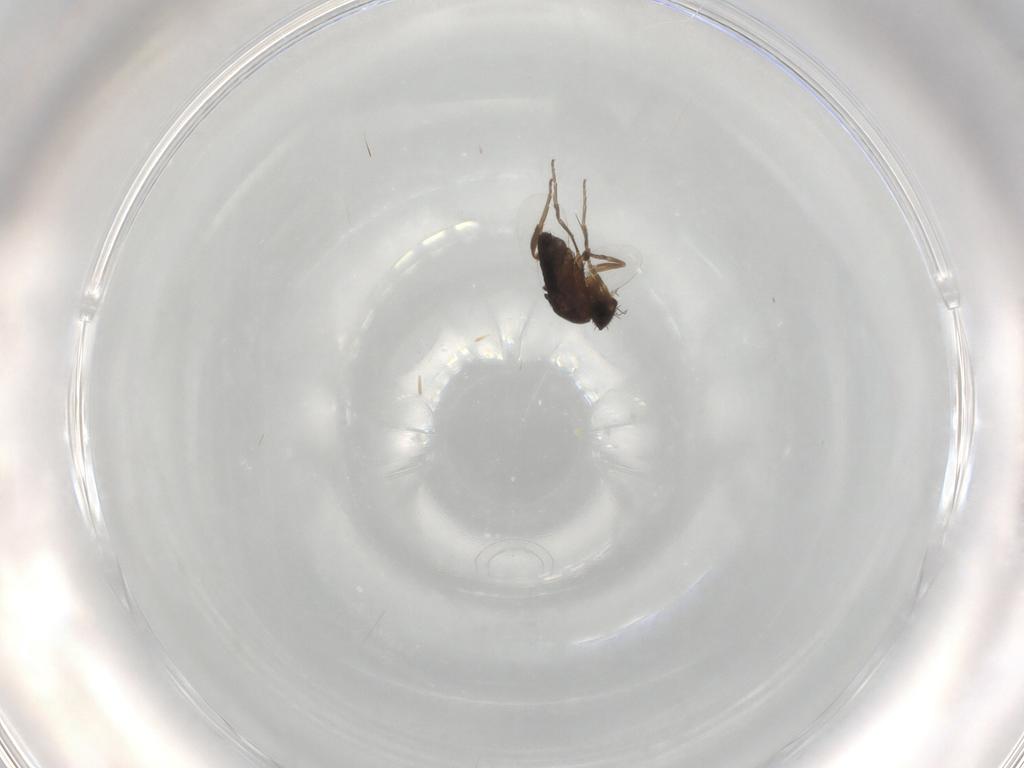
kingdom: Animalia
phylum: Arthropoda
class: Insecta
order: Diptera
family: Phoridae
